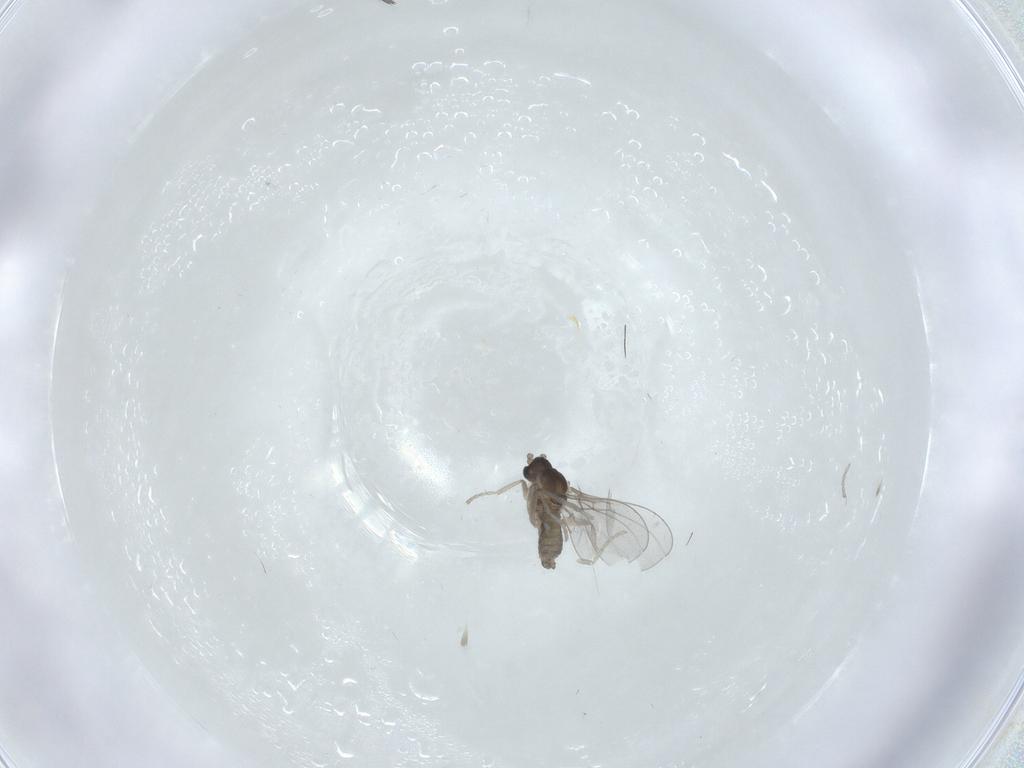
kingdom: Animalia
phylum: Arthropoda
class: Insecta
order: Diptera
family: Cecidomyiidae
